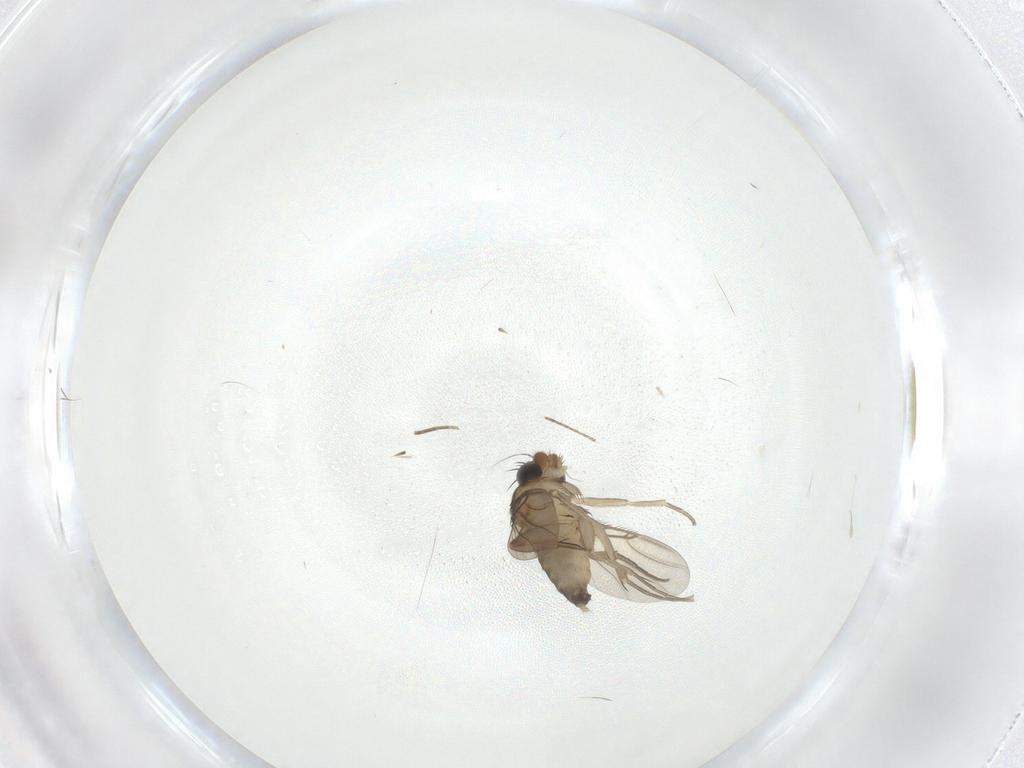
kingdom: Animalia
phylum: Arthropoda
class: Insecta
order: Diptera
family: Phoridae
